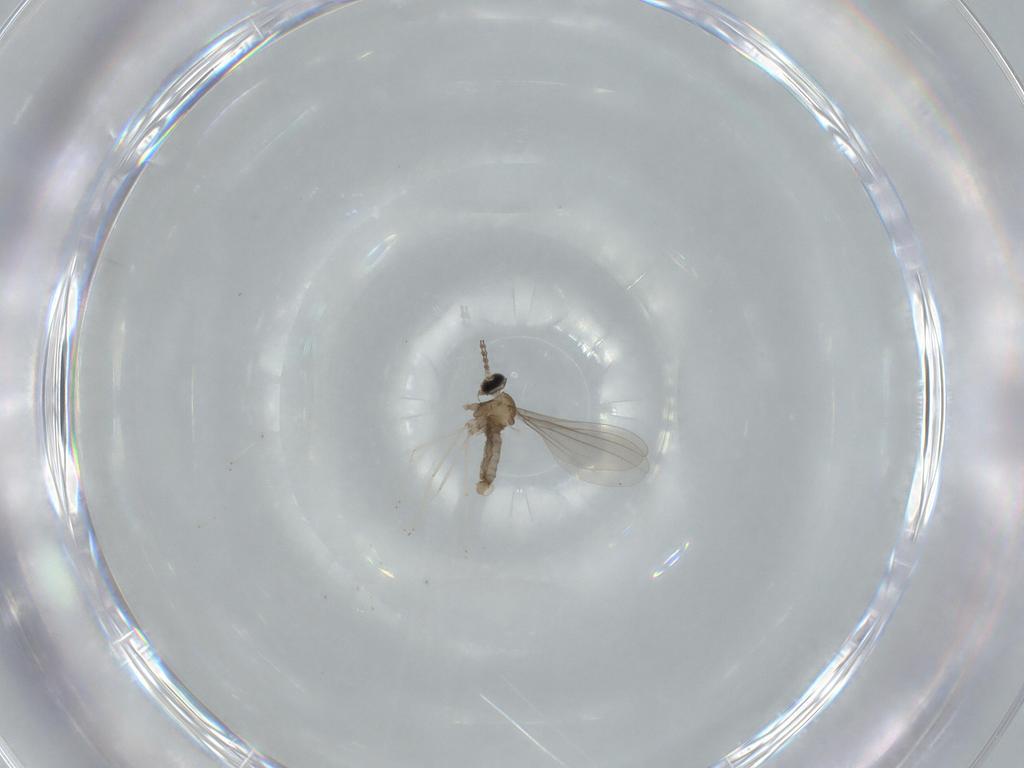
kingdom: Animalia
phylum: Arthropoda
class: Insecta
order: Diptera
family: Cecidomyiidae
